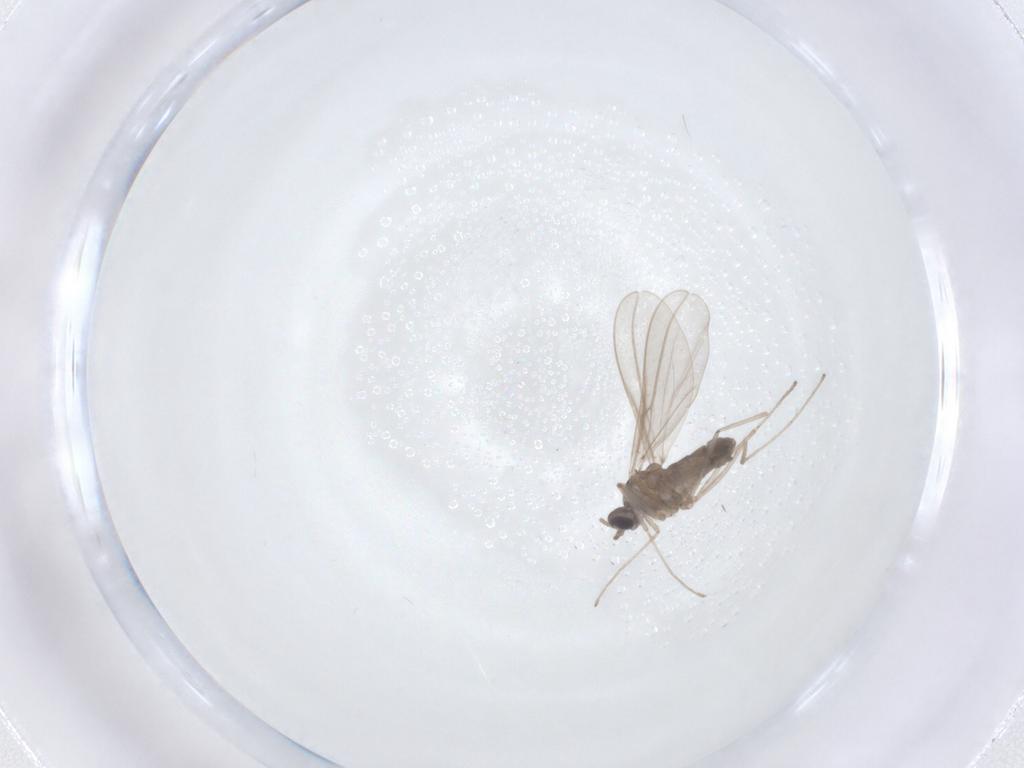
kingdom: Animalia
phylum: Arthropoda
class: Insecta
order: Diptera
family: Cecidomyiidae
